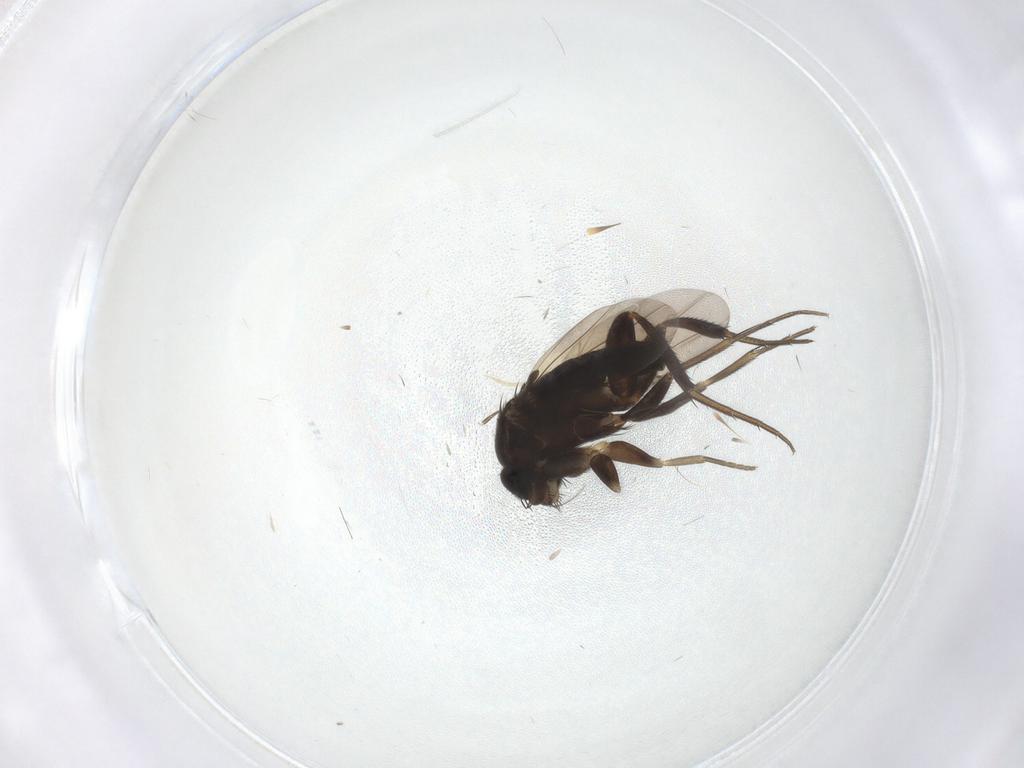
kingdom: Animalia
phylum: Arthropoda
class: Insecta
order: Diptera
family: Phoridae
